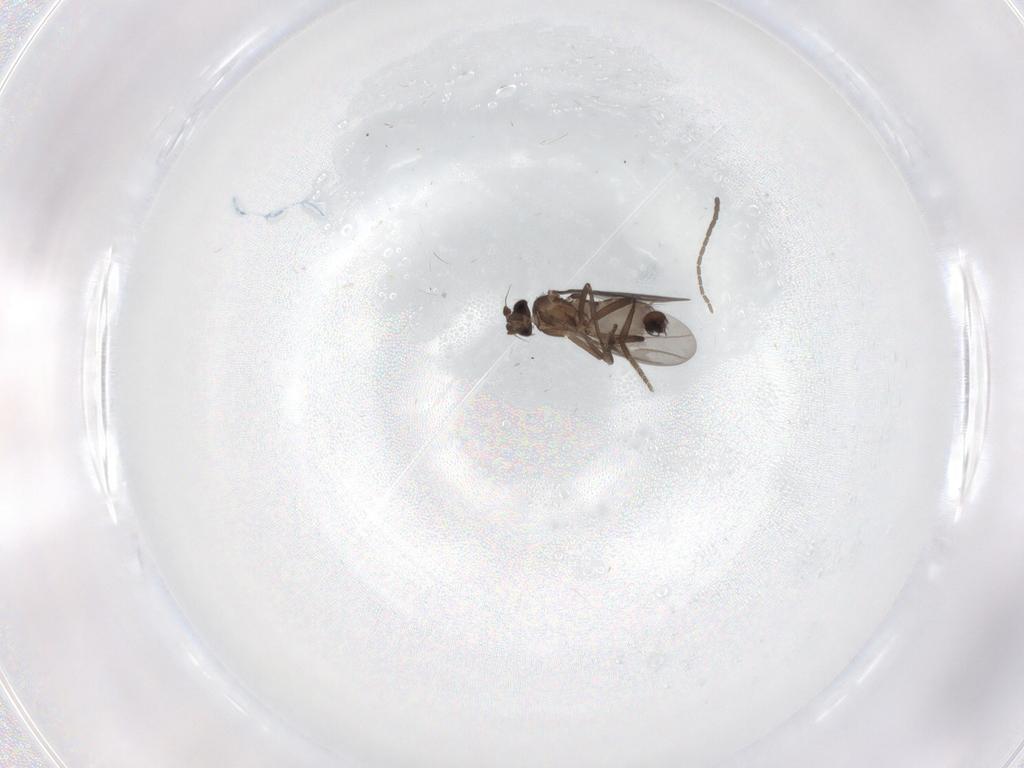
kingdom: Animalia
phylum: Arthropoda
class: Insecta
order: Diptera
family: Phoridae
